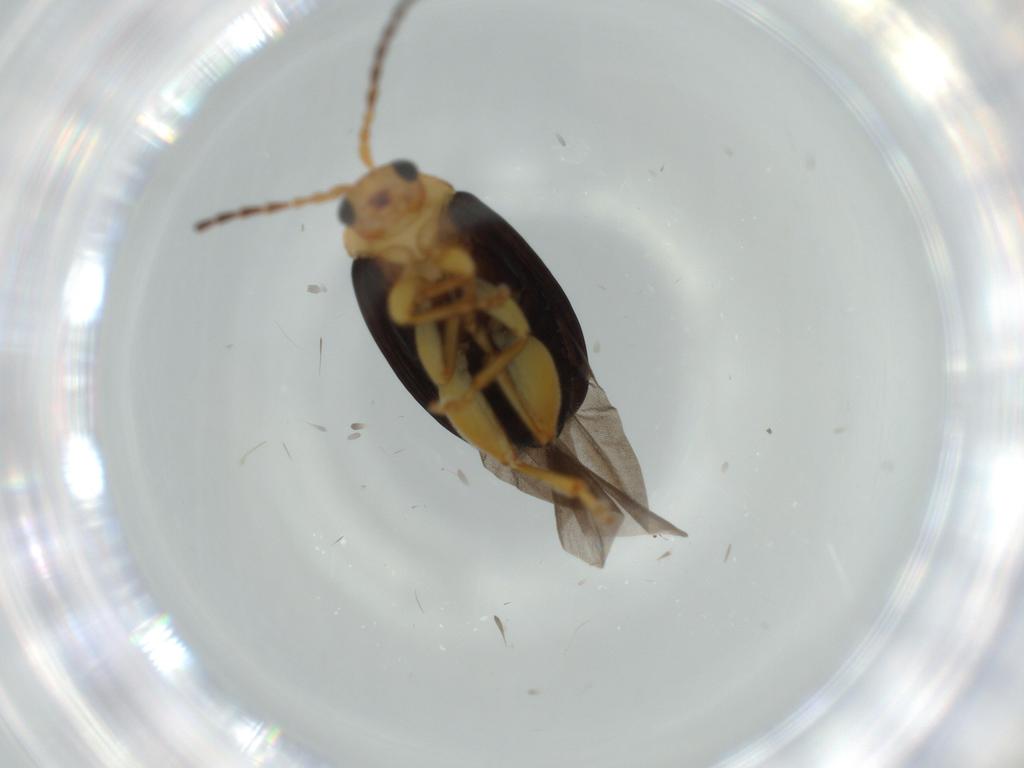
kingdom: Animalia
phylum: Arthropoda
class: Insecta
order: Coleoptera
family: Chrysomelidae
